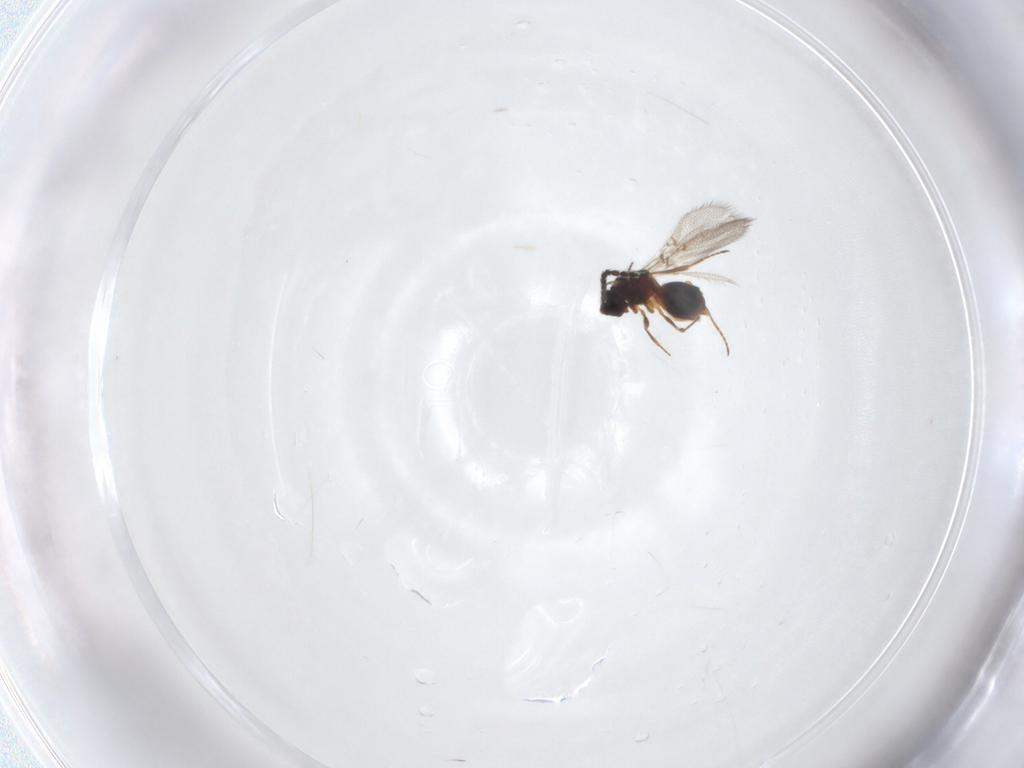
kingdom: Animalia
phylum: Arthropoda
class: Insecta
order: Hymenoptera
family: Figitidae
